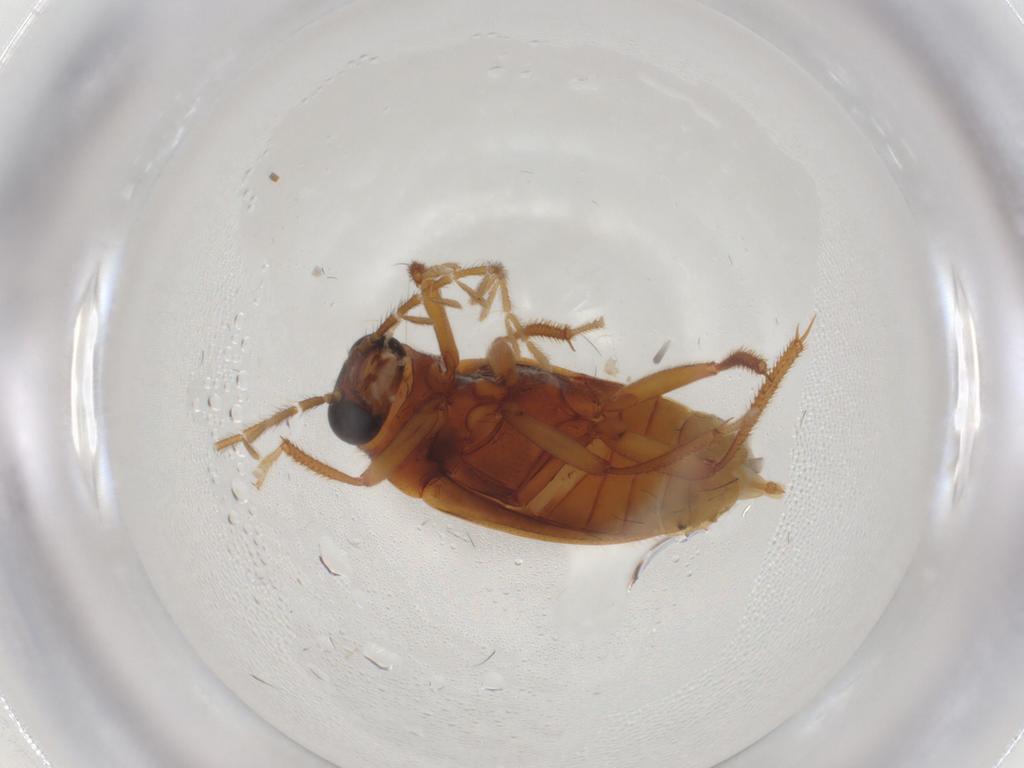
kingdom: Animalia
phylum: Arthropoda
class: Insecta
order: Coleoptera
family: Ptilodactylidae
